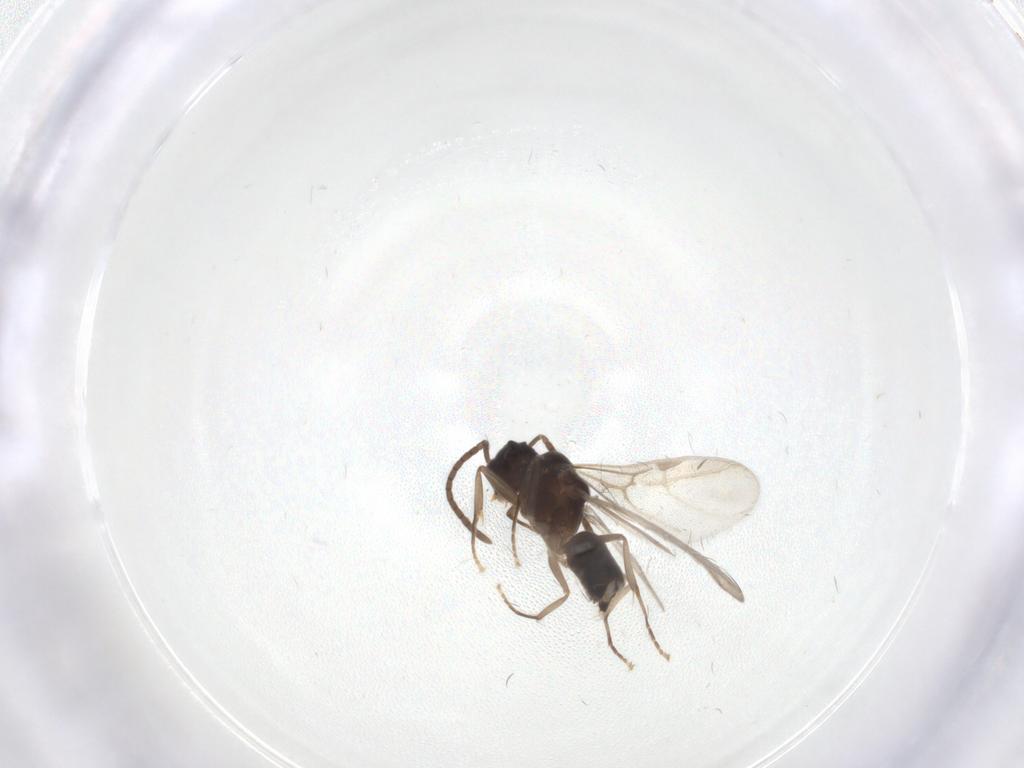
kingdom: Animalia
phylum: Arthropoda
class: Insecta
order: Hymenoptera
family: Formicidae
